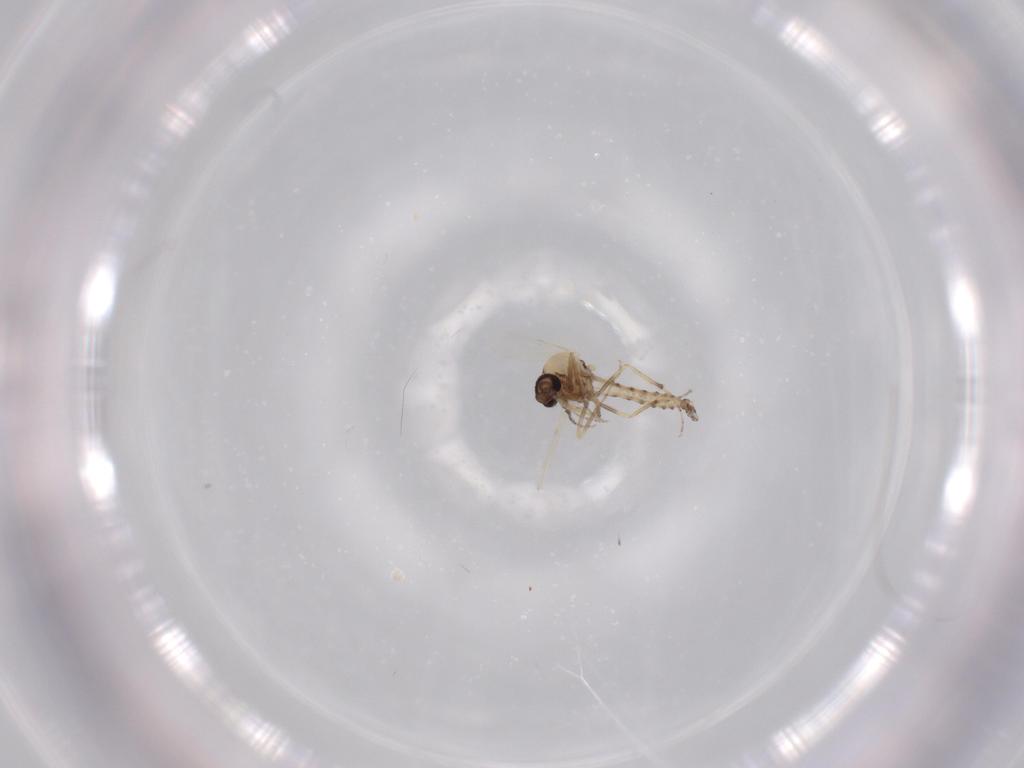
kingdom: Animalia
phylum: Arthropoda
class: Insecta
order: Diptera
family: Ceratopogonidae
